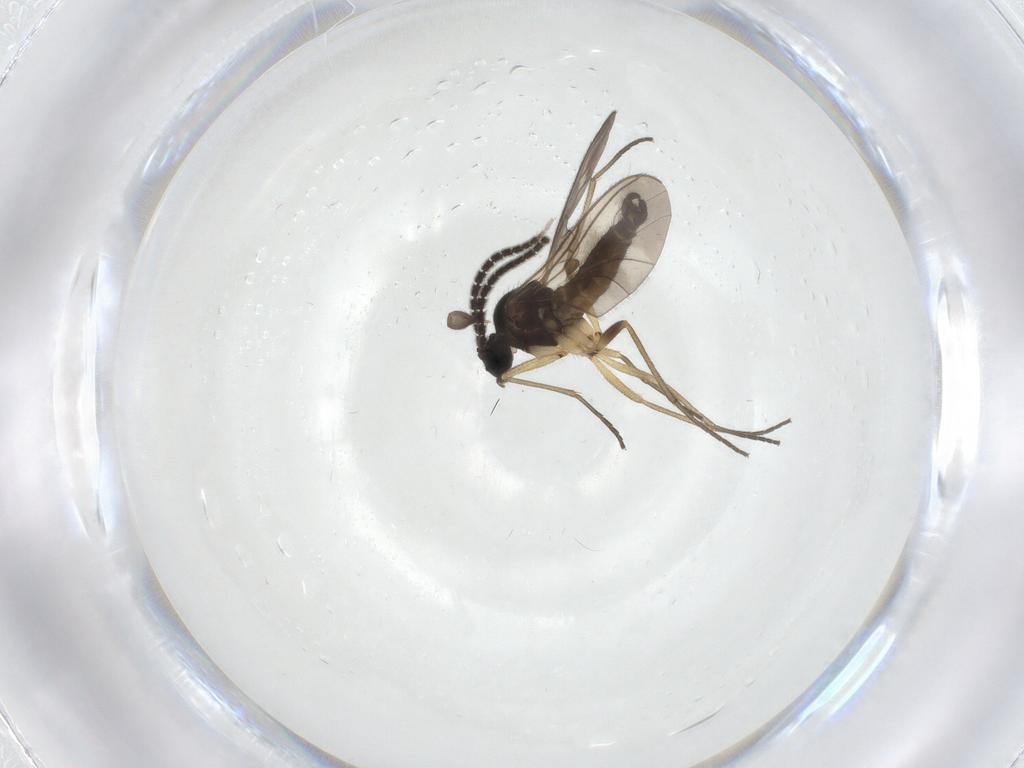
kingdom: Animalia
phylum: Arthropoda
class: Insecta
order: Diptera
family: Sciaridae
